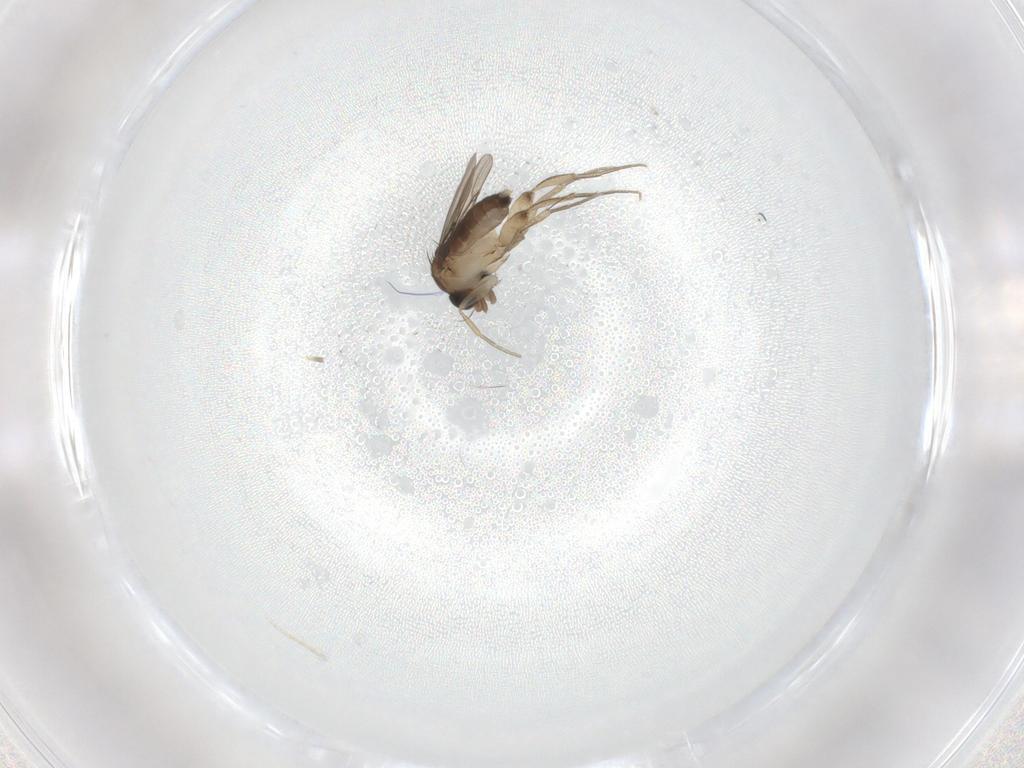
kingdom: Animalia
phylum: Arthropoda
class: Insecta
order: Diptera
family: Phoridae
